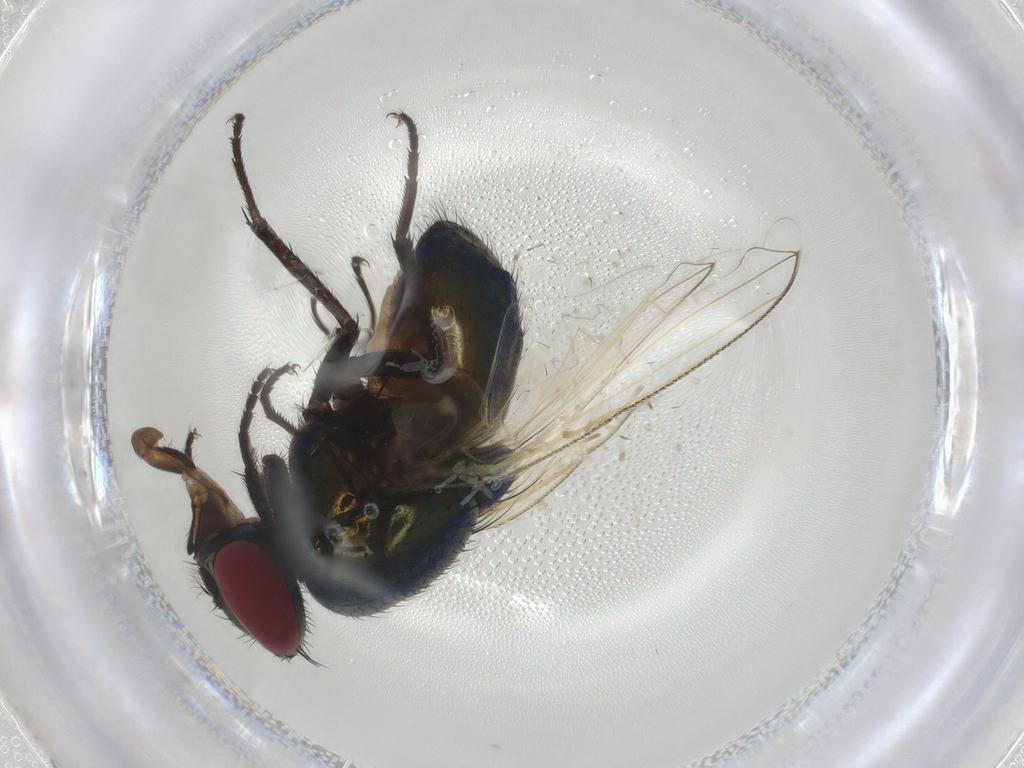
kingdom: Animalia
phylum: Arthropoda
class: Insecta
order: Diptera
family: Muscidae
